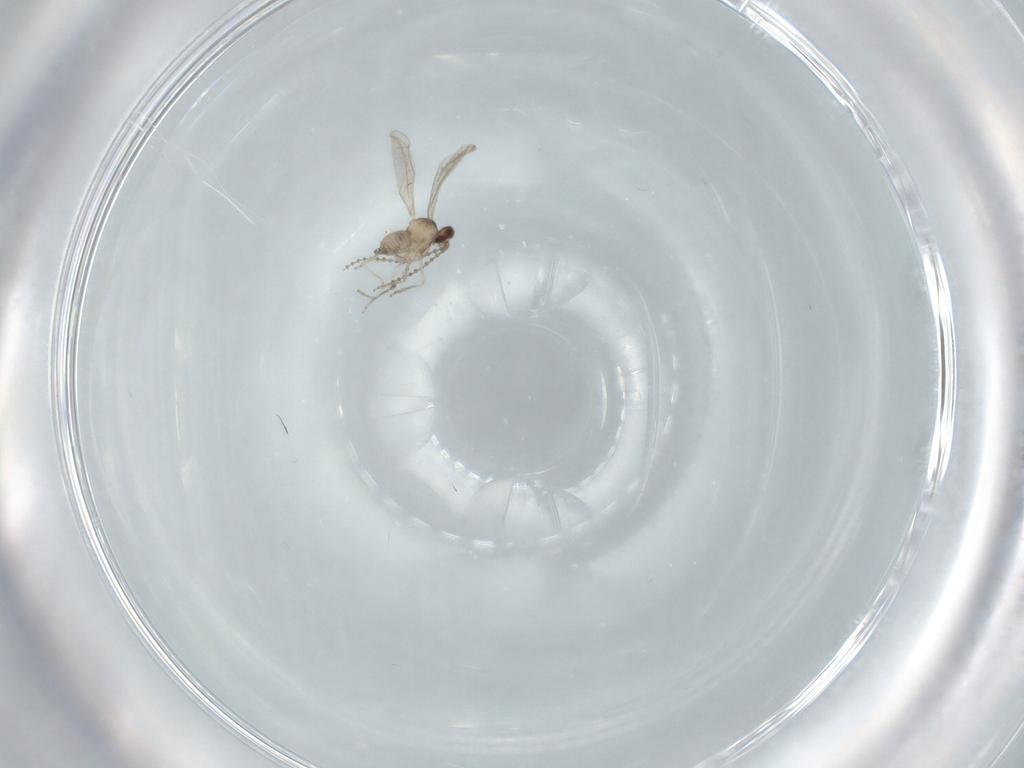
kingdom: Animalia
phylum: Arthropoda
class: Insecta
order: Diptera
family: Cecidomyiidae
